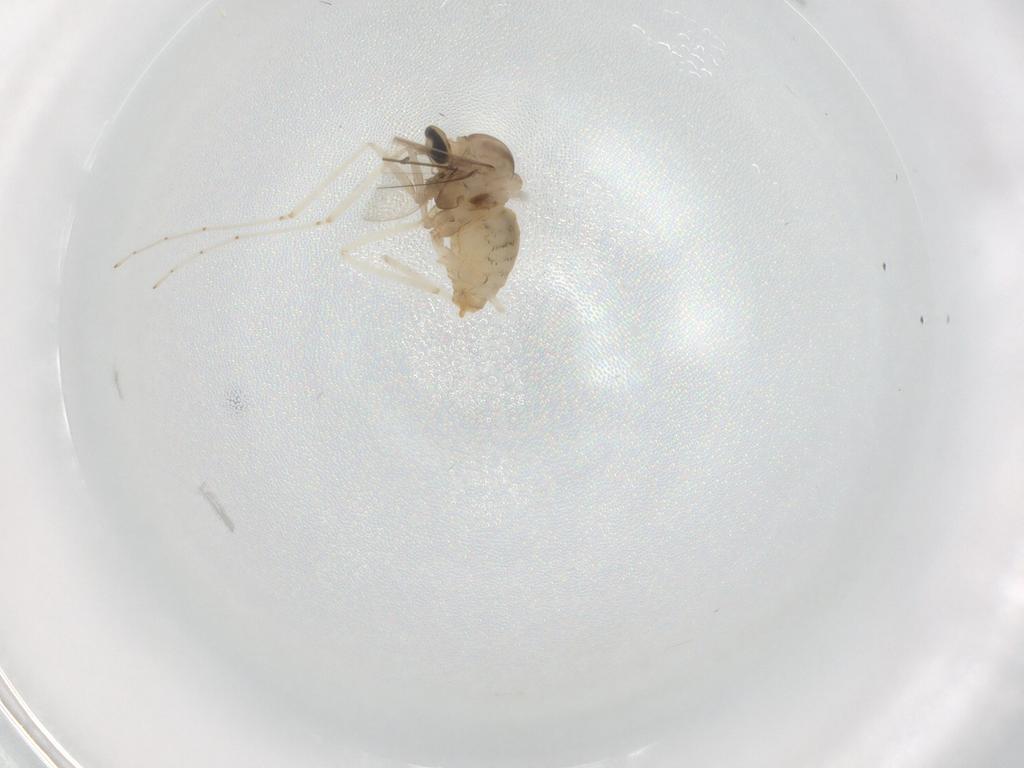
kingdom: Animalia
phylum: Arthropoda
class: Insecta
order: Diptera
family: Cecidomyiidae
